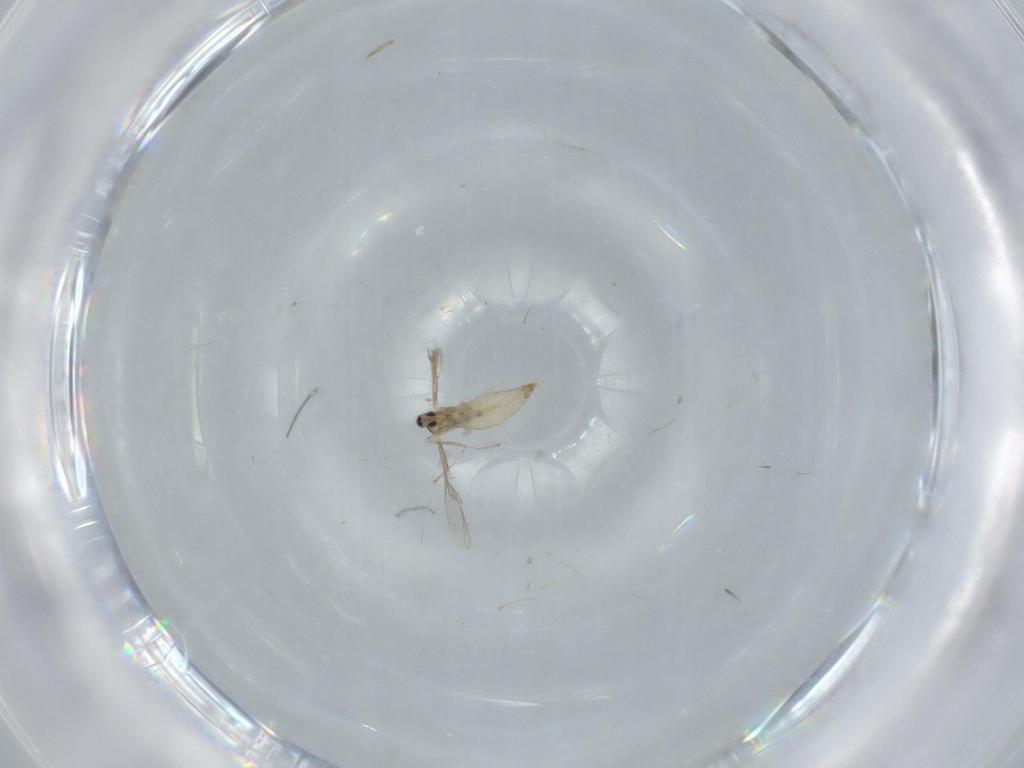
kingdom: Animalia
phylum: Arthropoda
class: Insecta
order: Diptera
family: Cecidomyiidae
